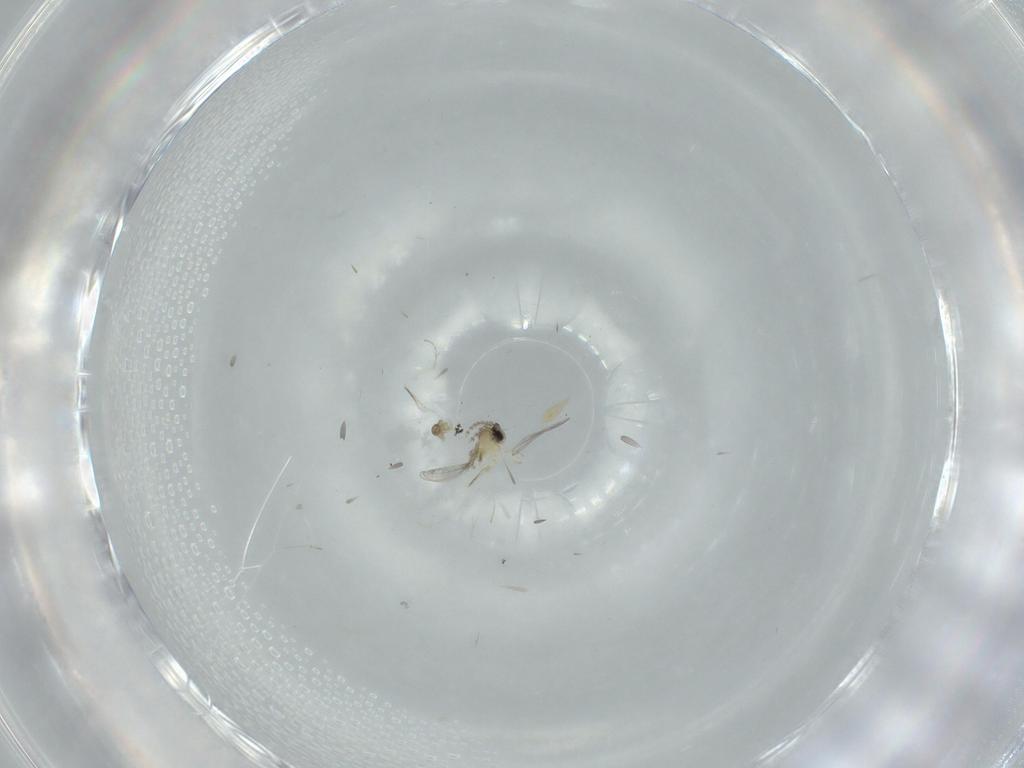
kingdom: Animalia
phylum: Arthropoda
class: Insecta
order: Diptera
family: Cecidomyiidae
